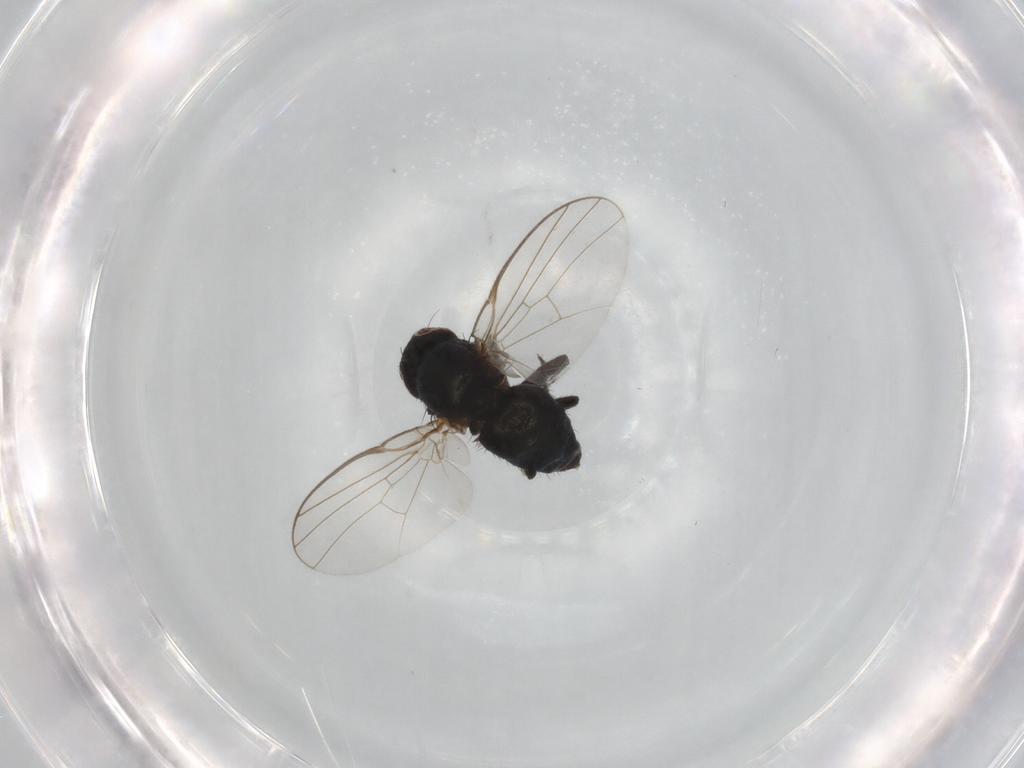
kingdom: Animalia
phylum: Arthropoda
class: Insecta
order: Diptera
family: Agromyzidae
